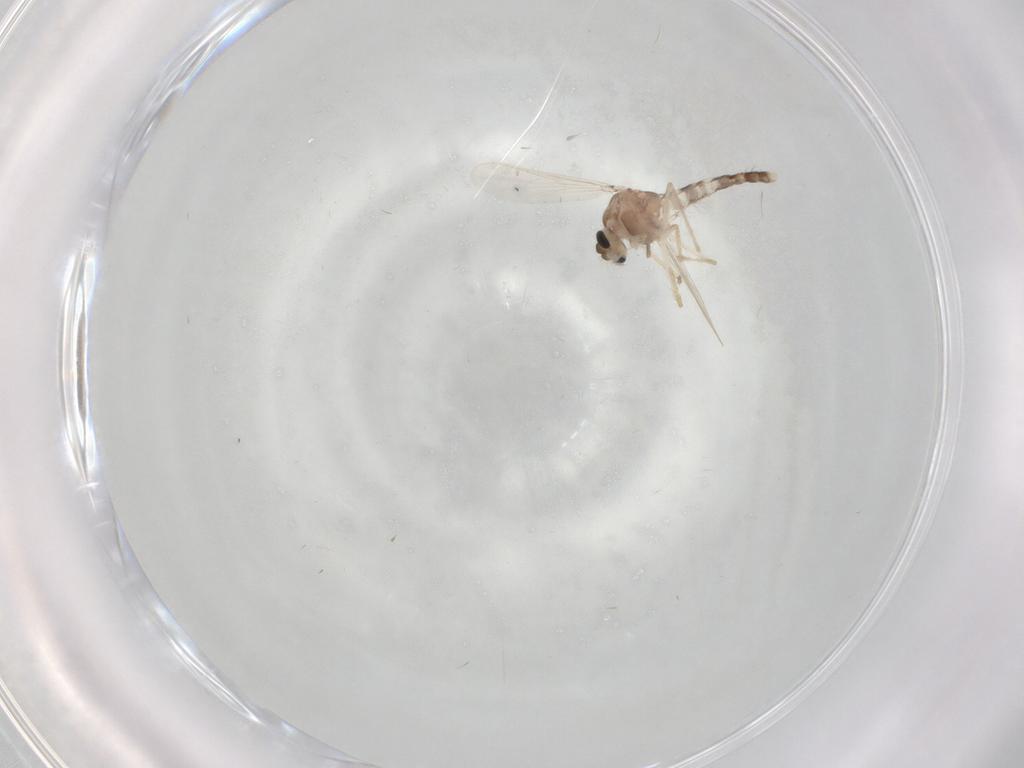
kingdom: Animalia
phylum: Arthropoda
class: Insecta
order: Diptera
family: Chironomidae
